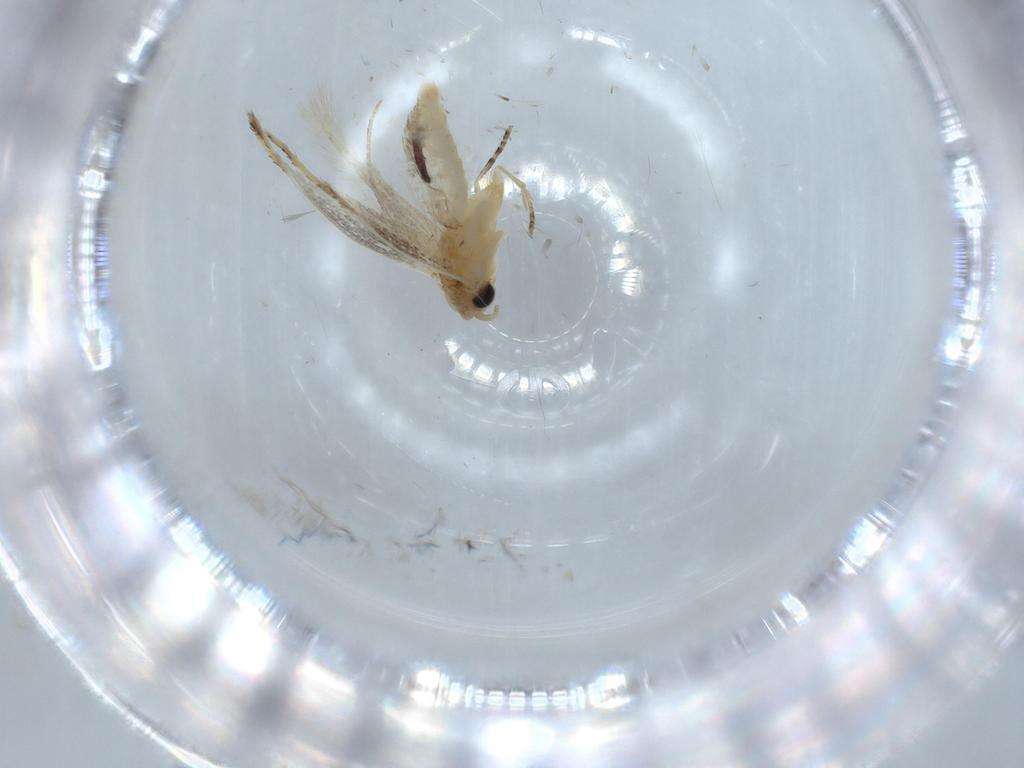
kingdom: Animalia
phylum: Arthropoda
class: Insecta
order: Lepidoptera
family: Bucculatricidae
